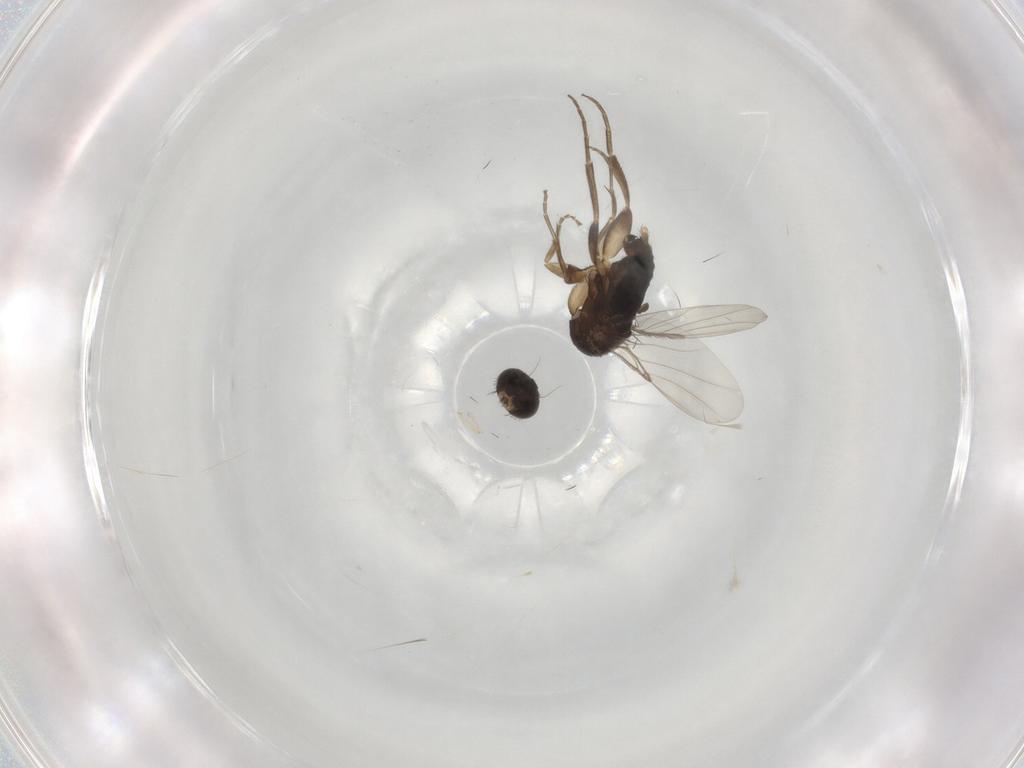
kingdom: Animalia
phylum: Arthropoda
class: Insecta
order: Diptera
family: Phoridae
